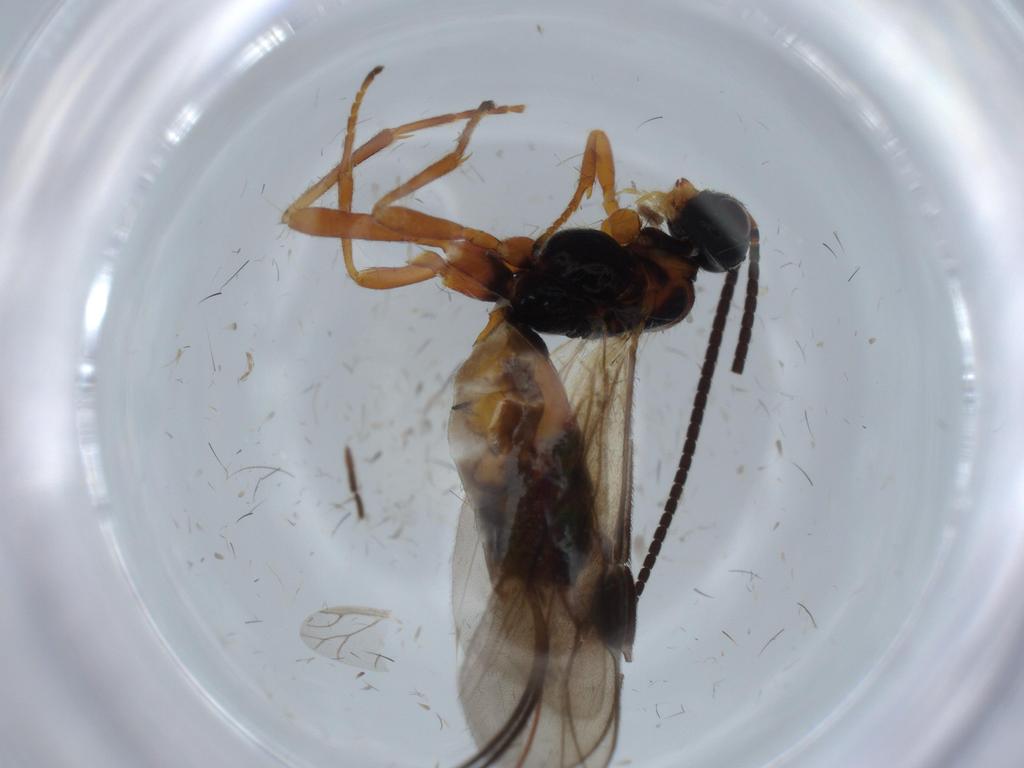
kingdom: Animalia
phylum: Arthropoda
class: Insecta
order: Hymenoptera
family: Braconidae
